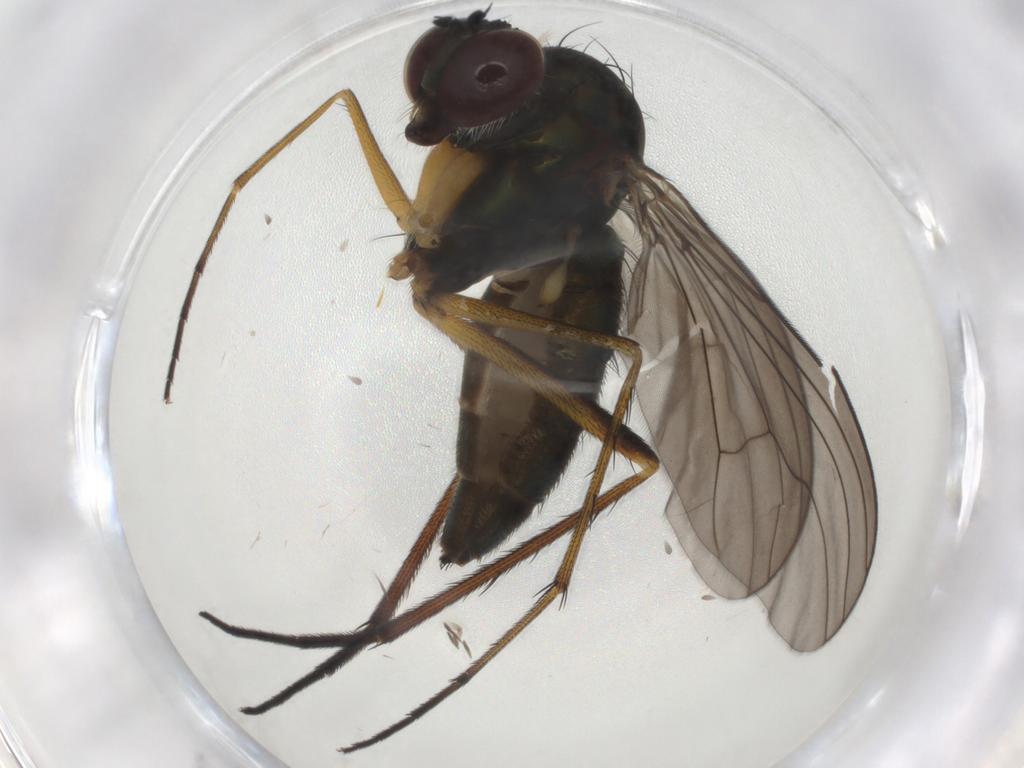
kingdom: Animalia
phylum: Arthropoda
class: Insecta
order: Diptera
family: Dolichopodidae
